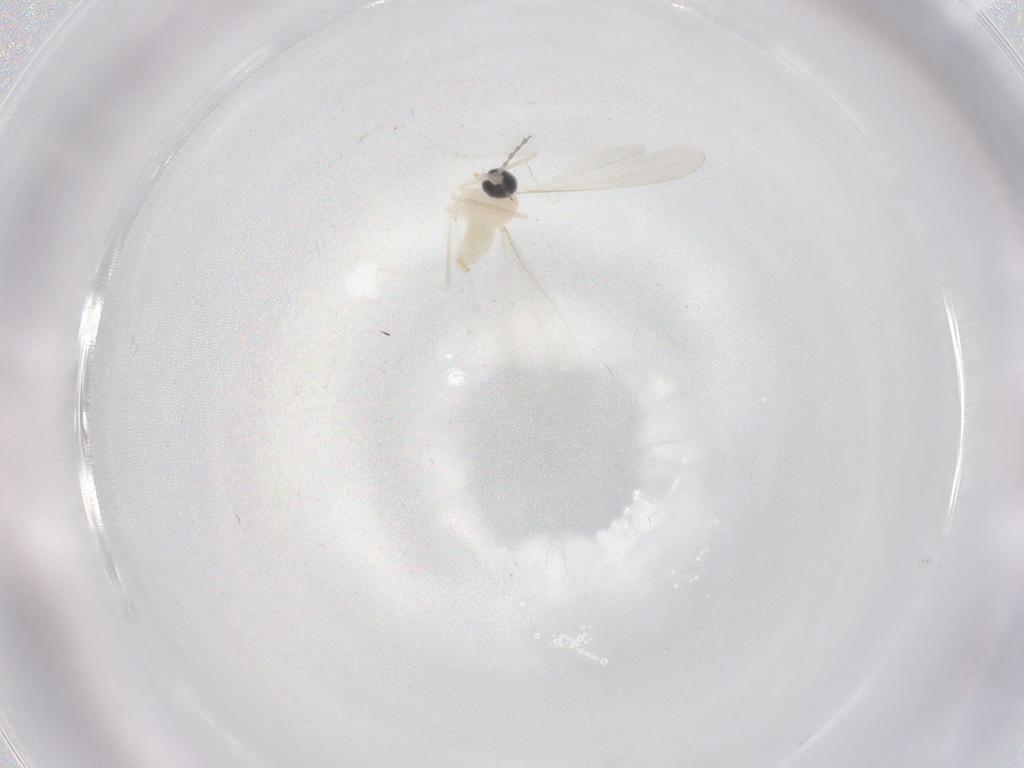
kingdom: Animalia
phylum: Arthropoda
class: Insecta
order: Diptera
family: Cecidomyiidae
